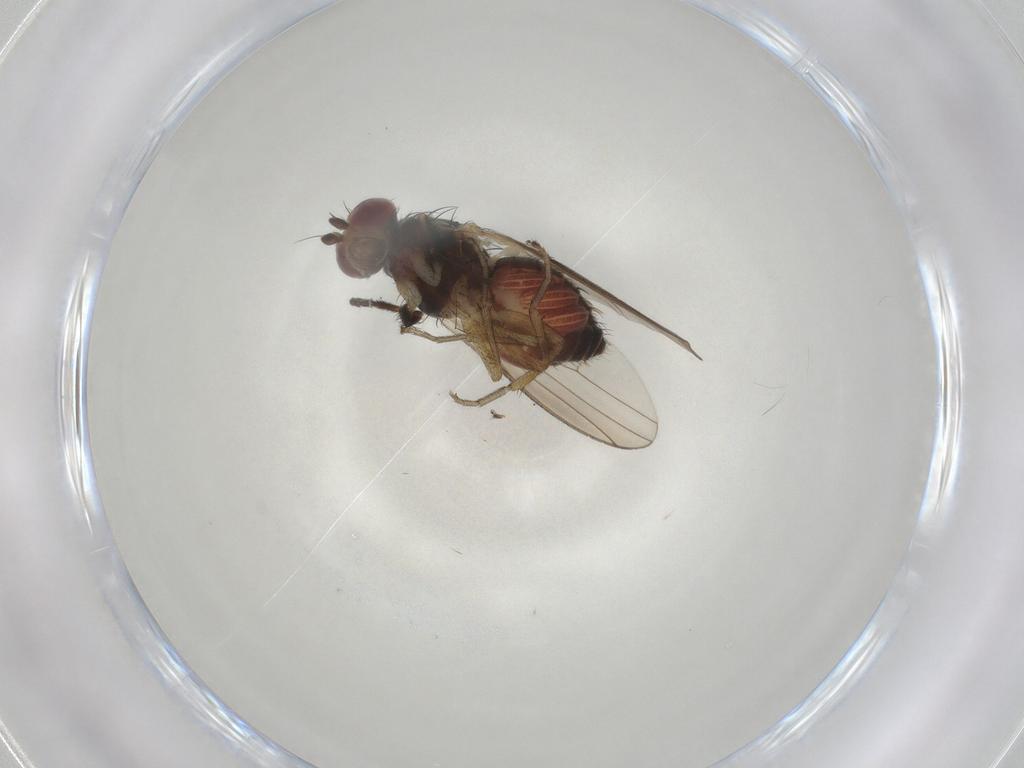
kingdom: Animalia
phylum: Arthropoda
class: Insecta
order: Diptera
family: Heleomyzidae
